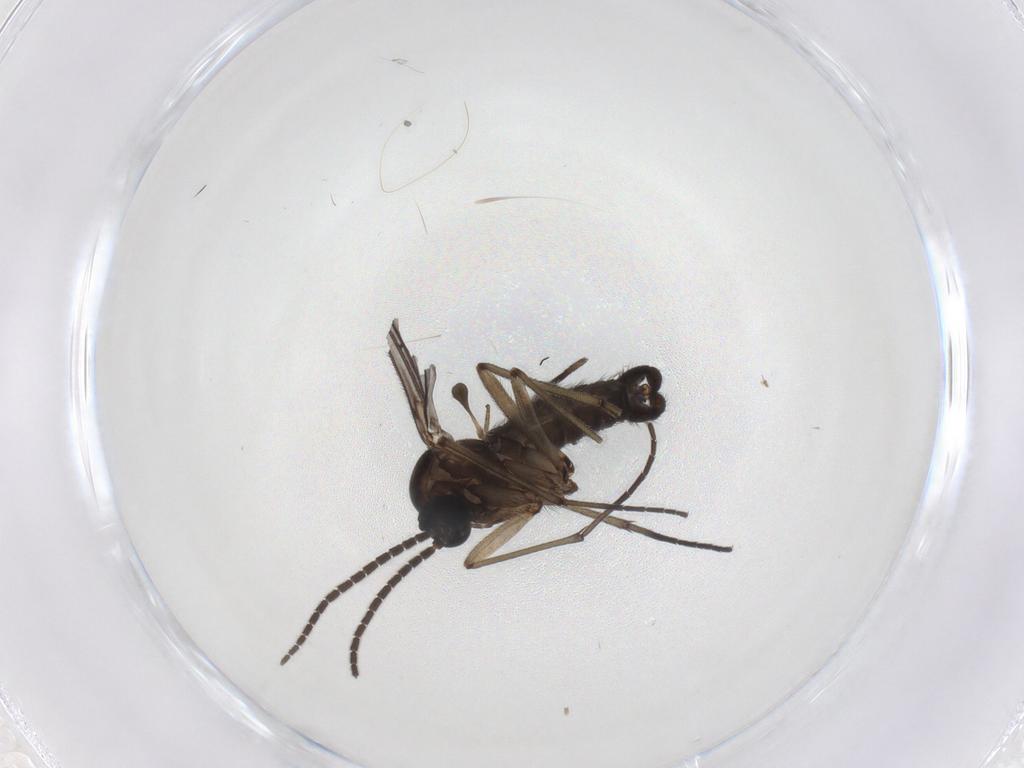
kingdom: Animalia
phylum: Arthropoda
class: Insecta
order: Diptera
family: Sciaridae
